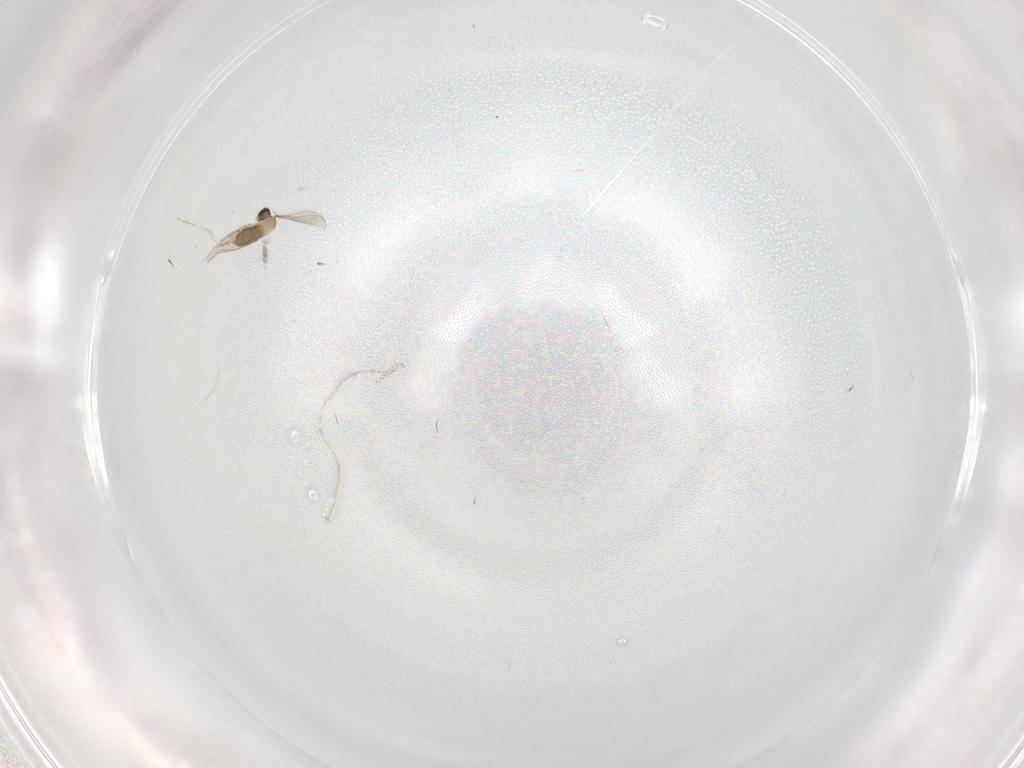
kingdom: Animalia
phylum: Arthropoda
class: Insecta
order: Diptera
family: Cecidomyiidae
